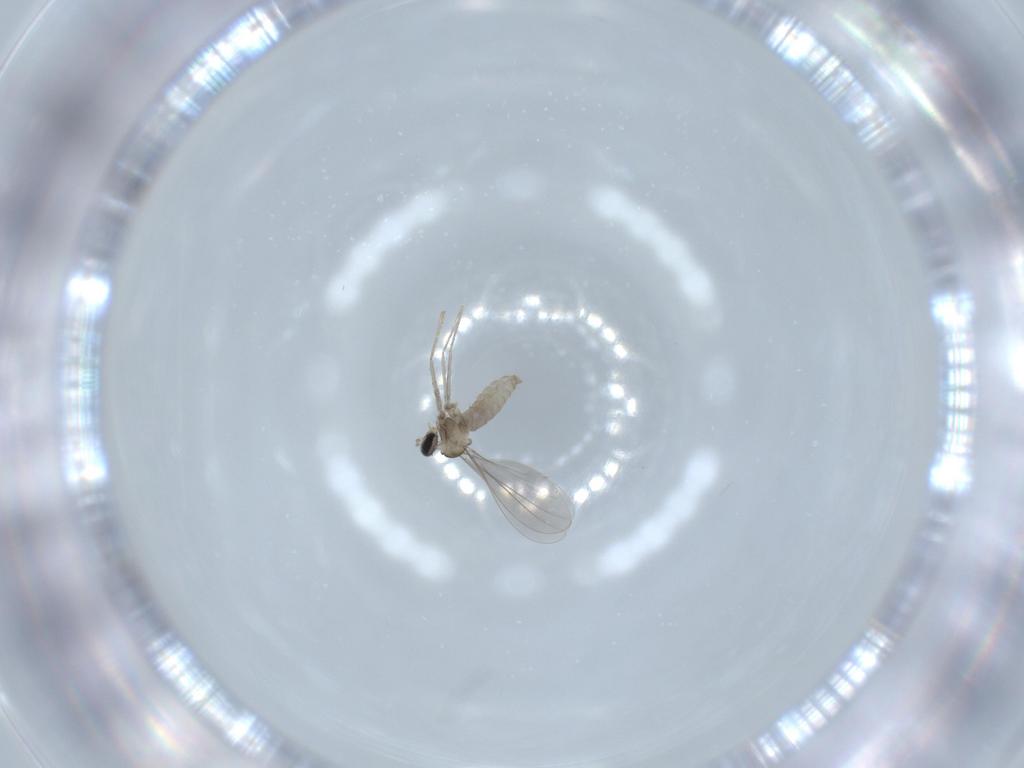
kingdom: Animalia
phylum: Arthropoda
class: Insecta
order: Diptera
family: Cecidomyiidae
